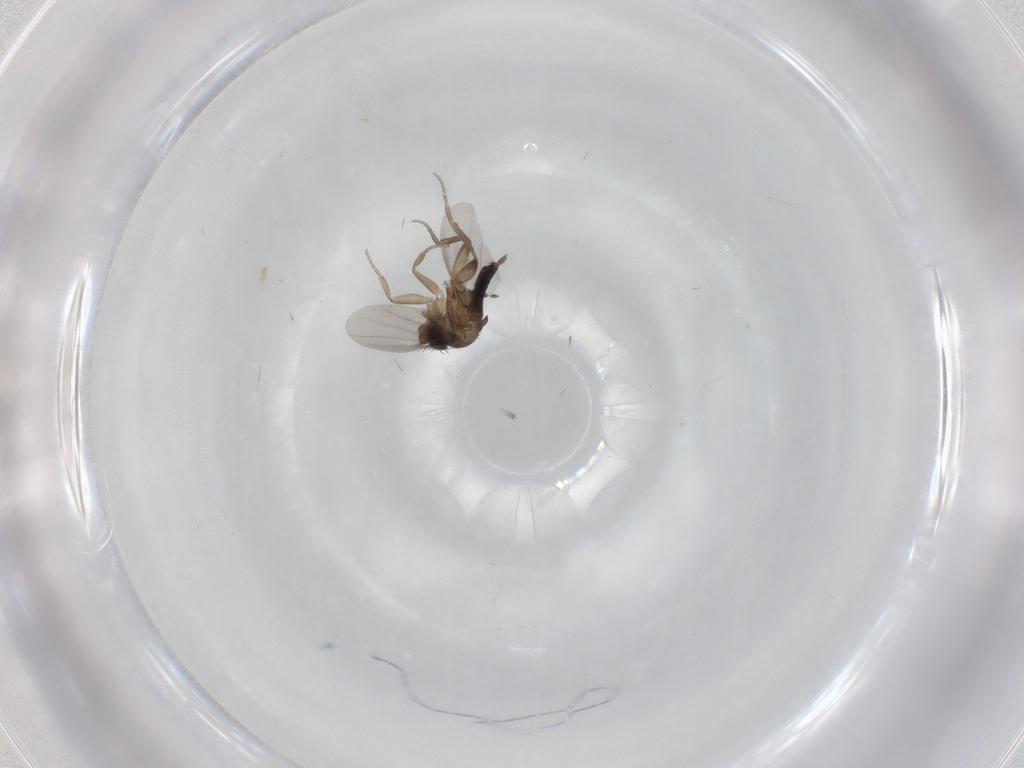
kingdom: Animalia
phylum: Arthropoda
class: Insecta
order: Diptera
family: Phoridae
